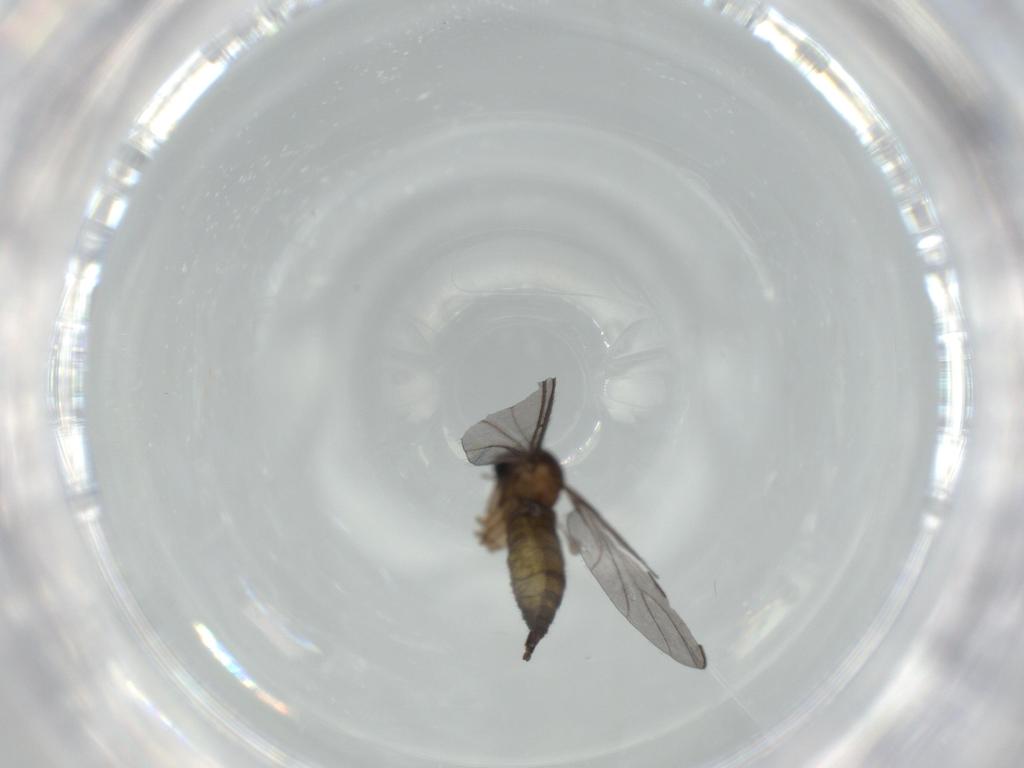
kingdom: Animalia
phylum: Arthropoda
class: Insecta
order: Diptera
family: Sciaridae
